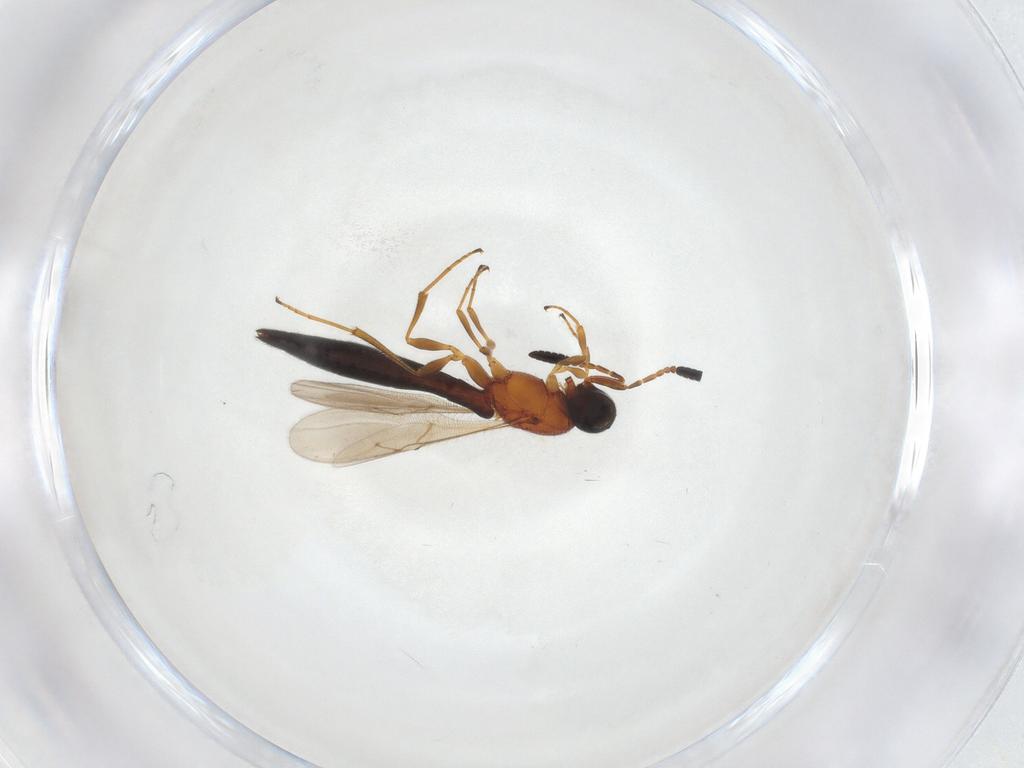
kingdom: Animalia
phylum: Arthropoda
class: Insecta
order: Hymenoptera
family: Scelionidae
